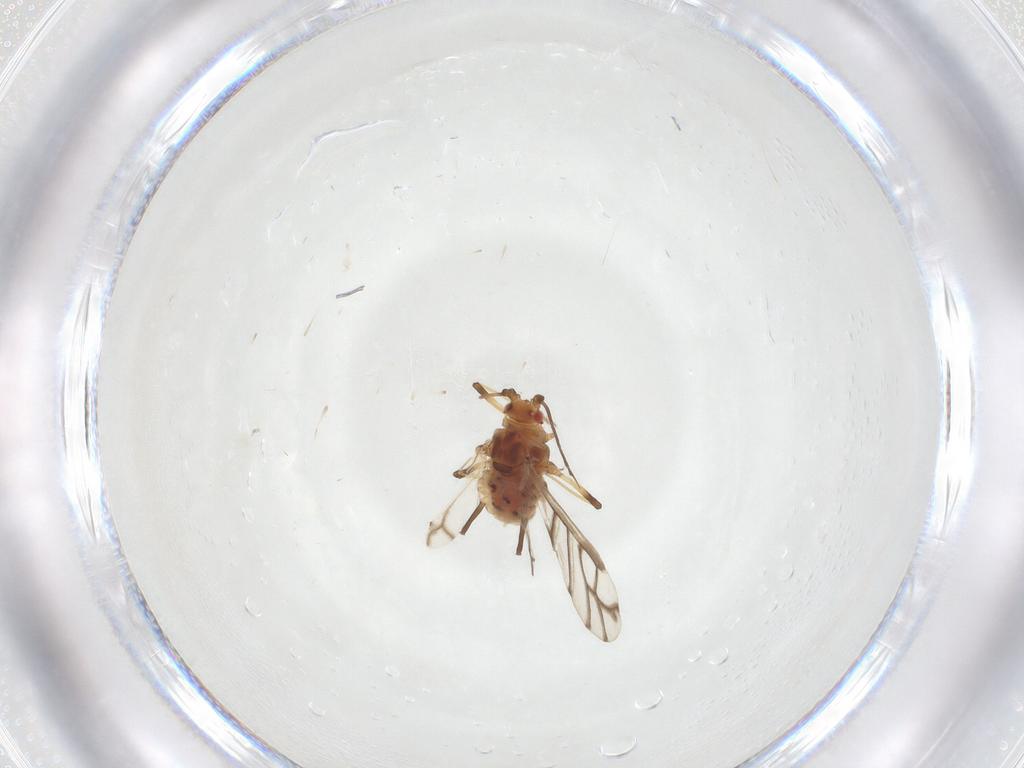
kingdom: Animalia
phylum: Arthropoda
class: Insecta
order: Hemiptera
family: Aphididae
